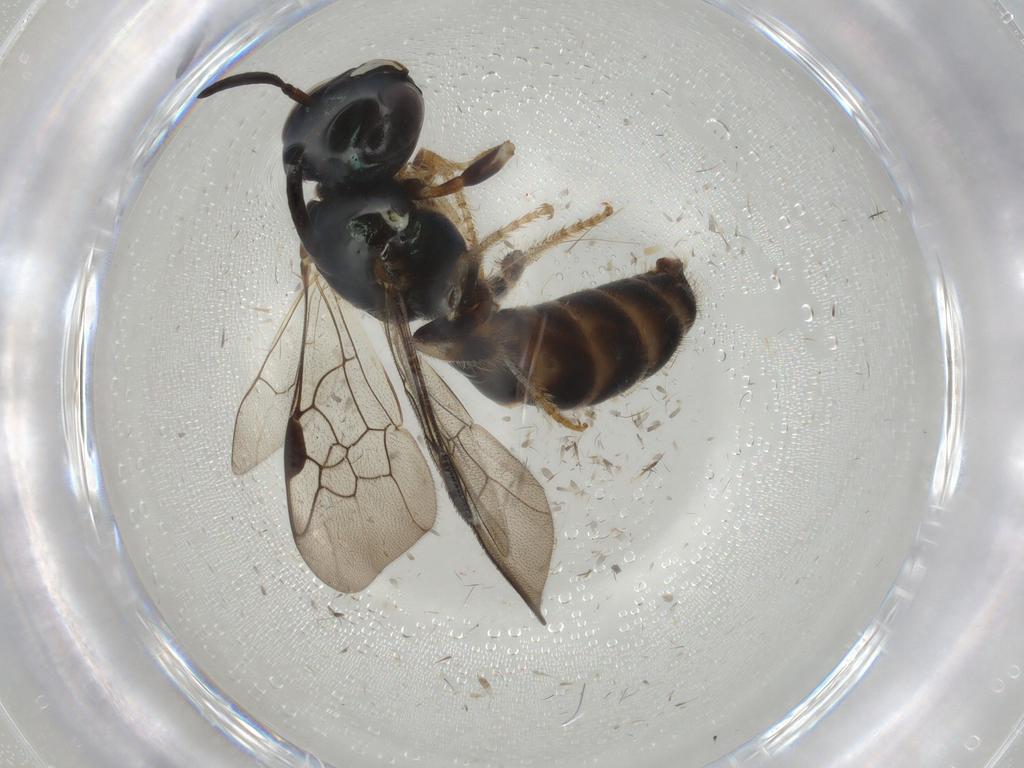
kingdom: Animalia
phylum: Arthropoda
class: Insecta
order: Hymenoptera
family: Apidae
